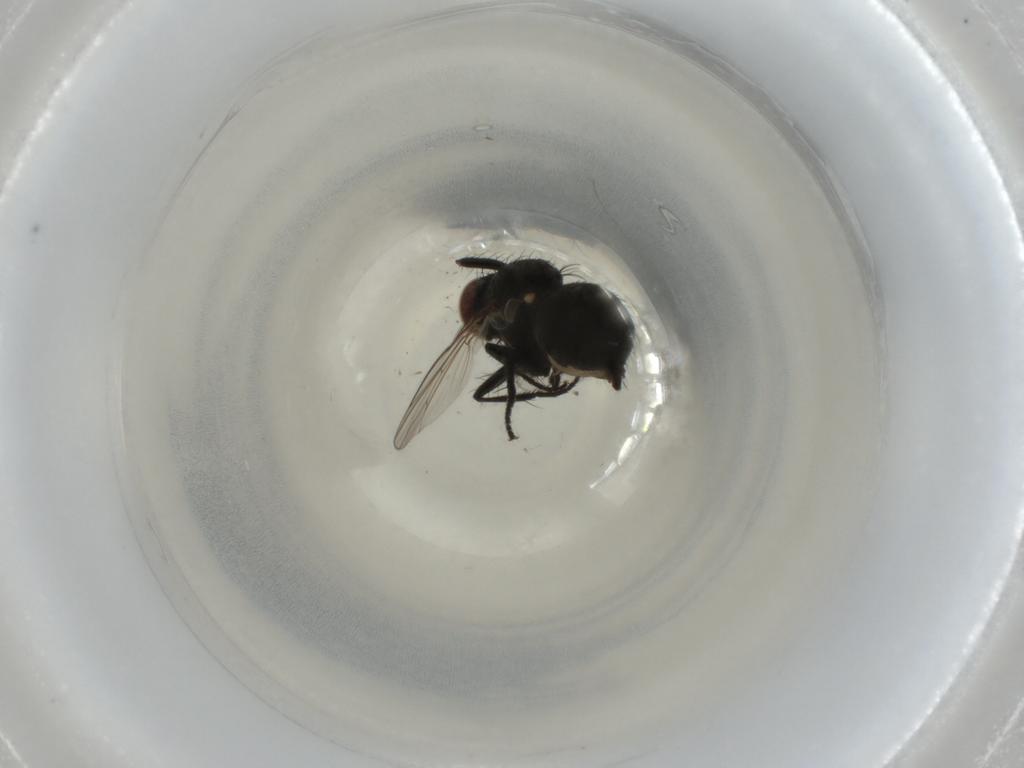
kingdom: Animalia
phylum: Arthropoda
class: Insecta
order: Diptera
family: Muscidae
